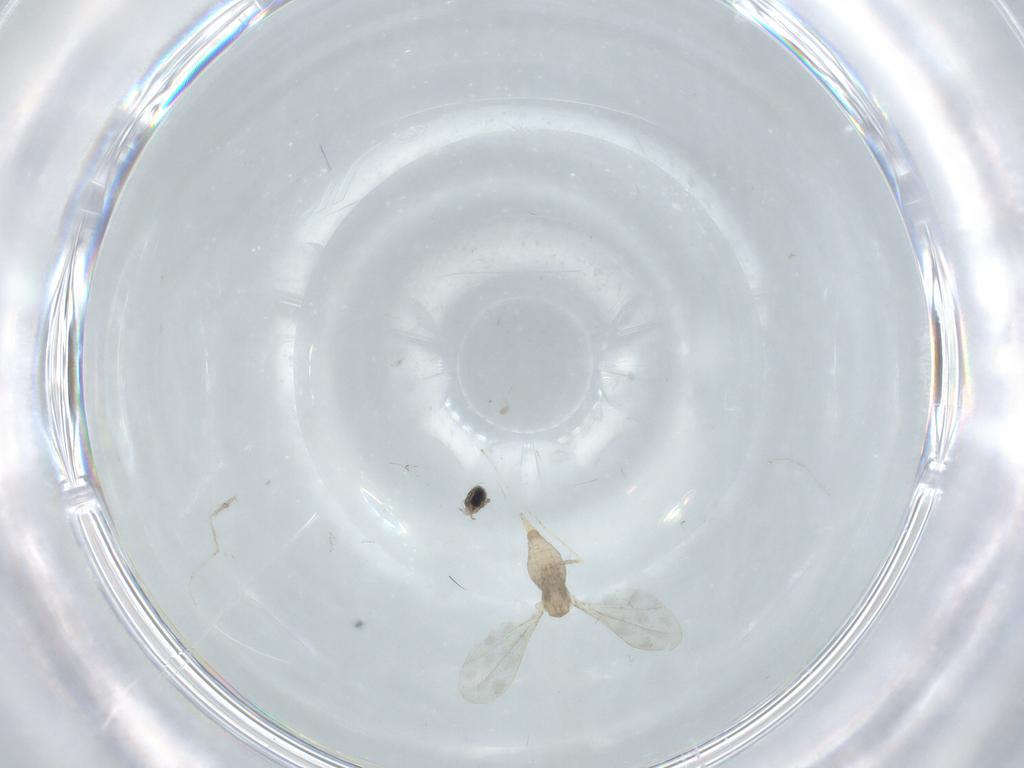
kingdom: Animalia
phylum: Arthropoda
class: Insecta
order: Diptera
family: Cecidomyiidae
